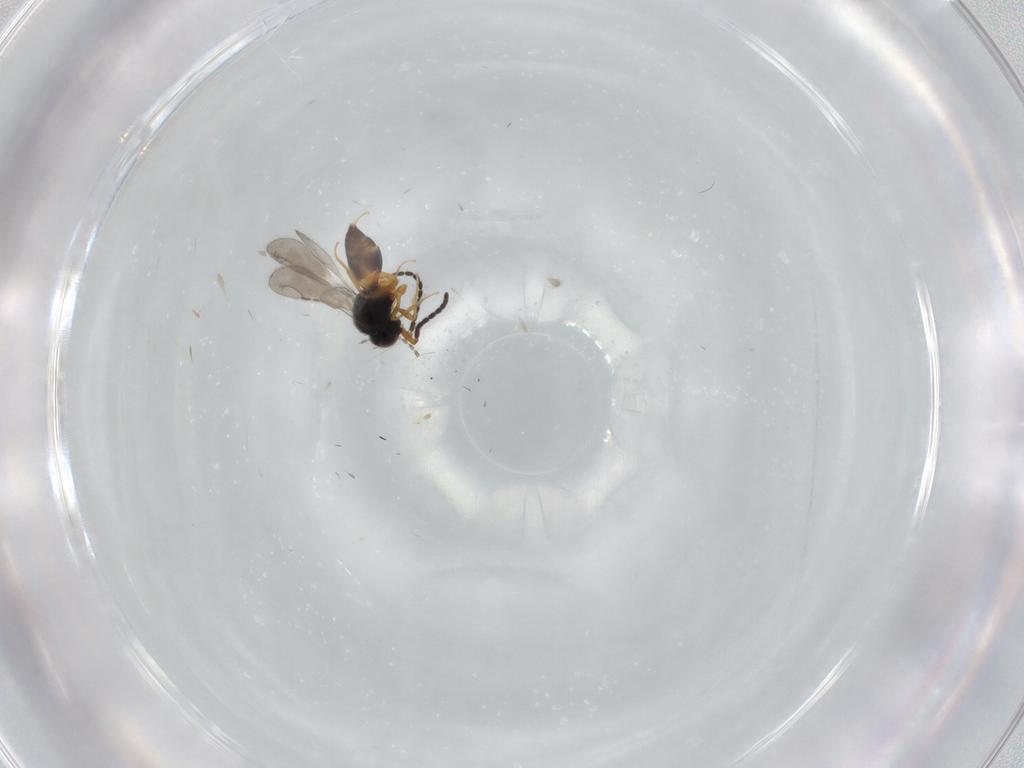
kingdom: Animalia
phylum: Arthropoda
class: Insecta
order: Hymenoptera
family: Ceraphronidae
